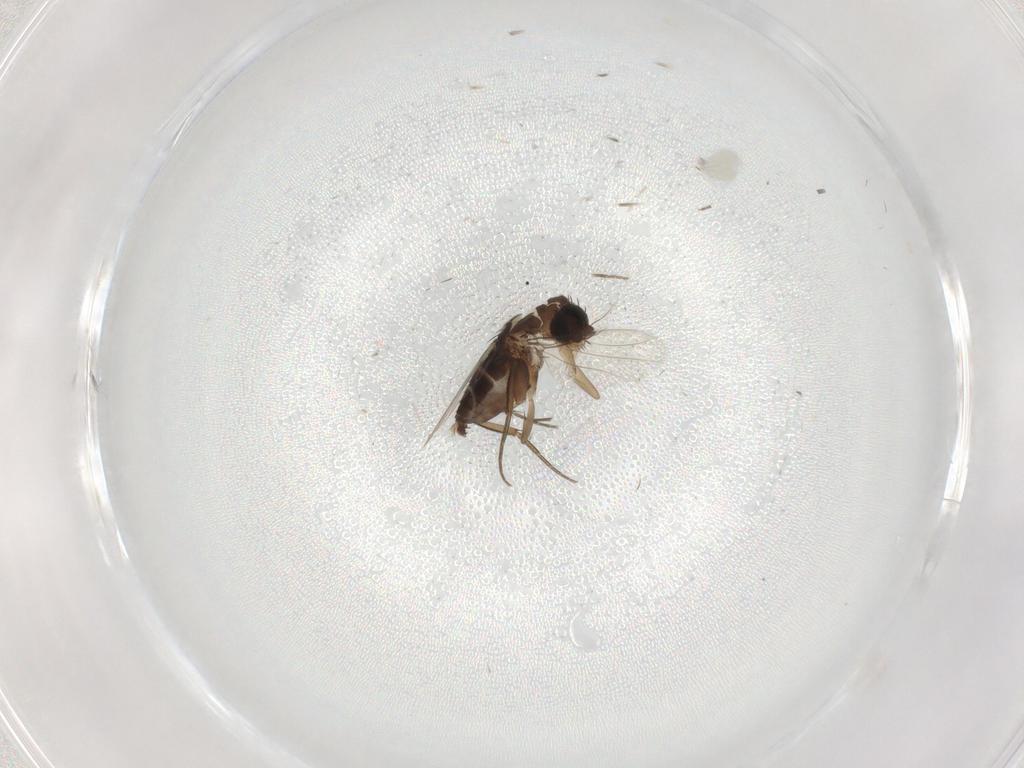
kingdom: Animalia
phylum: Arthropoda
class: Insecta
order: Diptera
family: Phoridae
